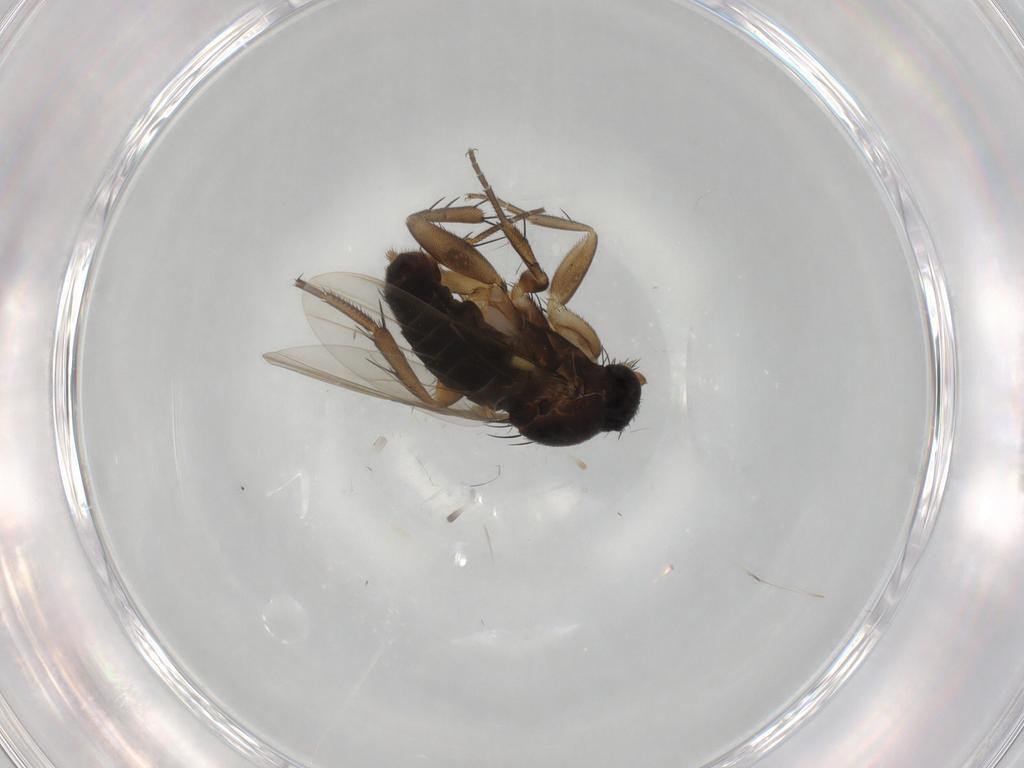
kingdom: Animalia
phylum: Arthropoda
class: Insecta
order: Diptera
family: Phoridae
